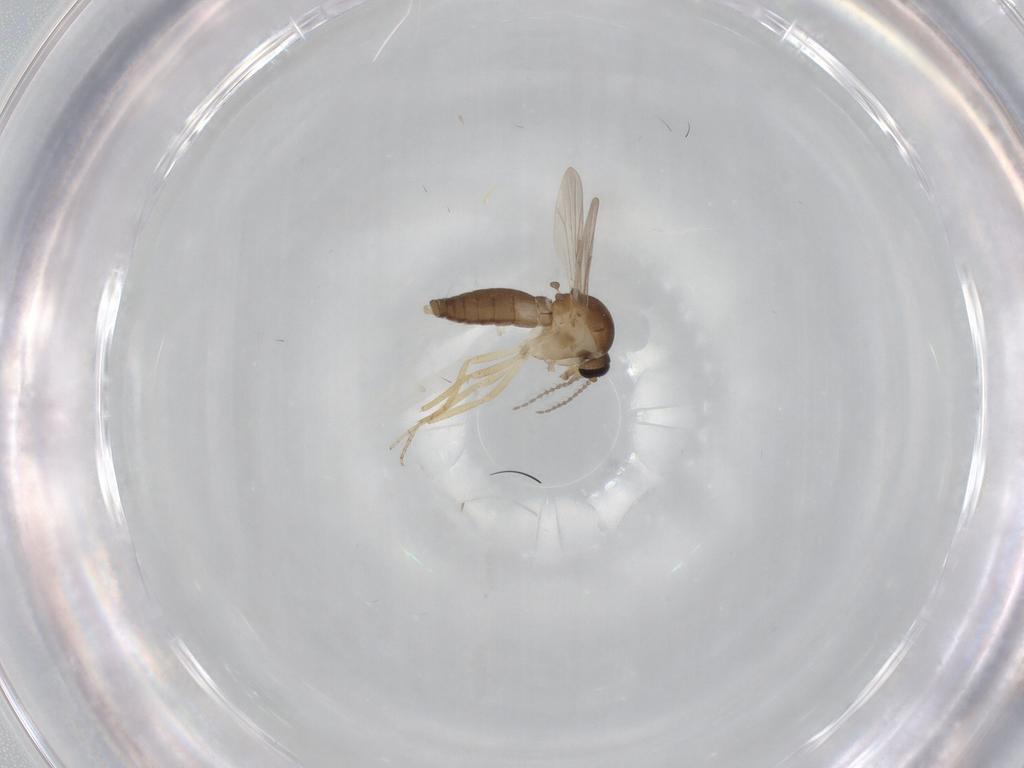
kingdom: Animalia
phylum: Arthropoda
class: Insecta
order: Diptera
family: Ceratopogonidae
